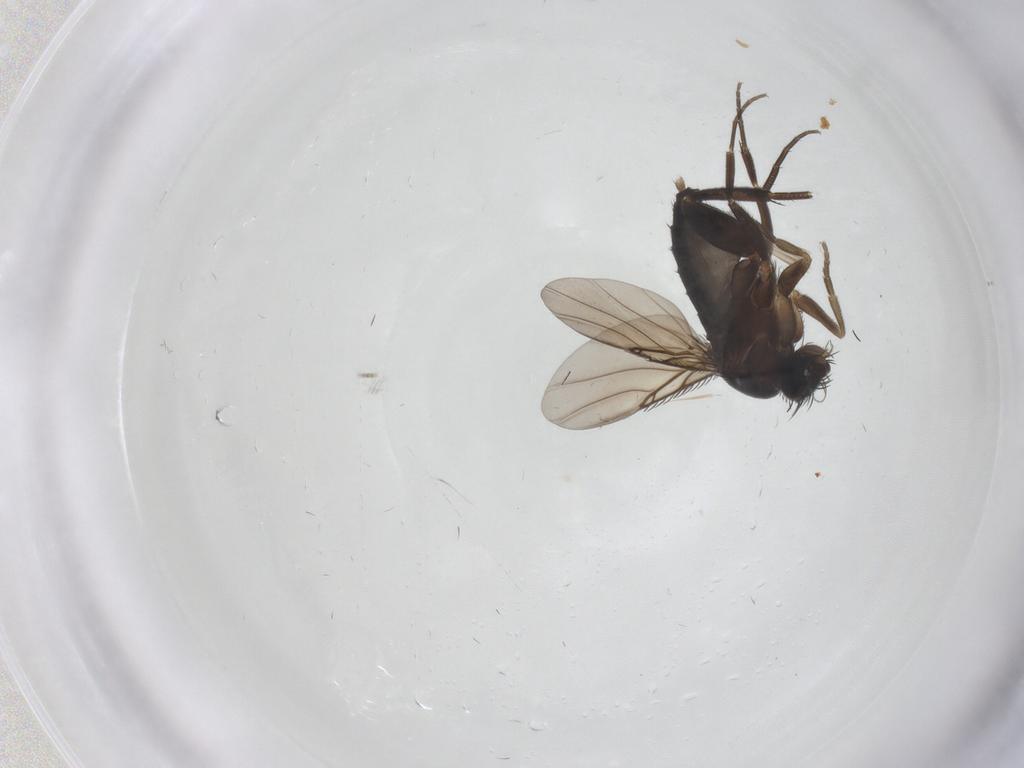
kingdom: Animalia
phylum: Arthropoda
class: Insecta
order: Diptera
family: Phoridae
